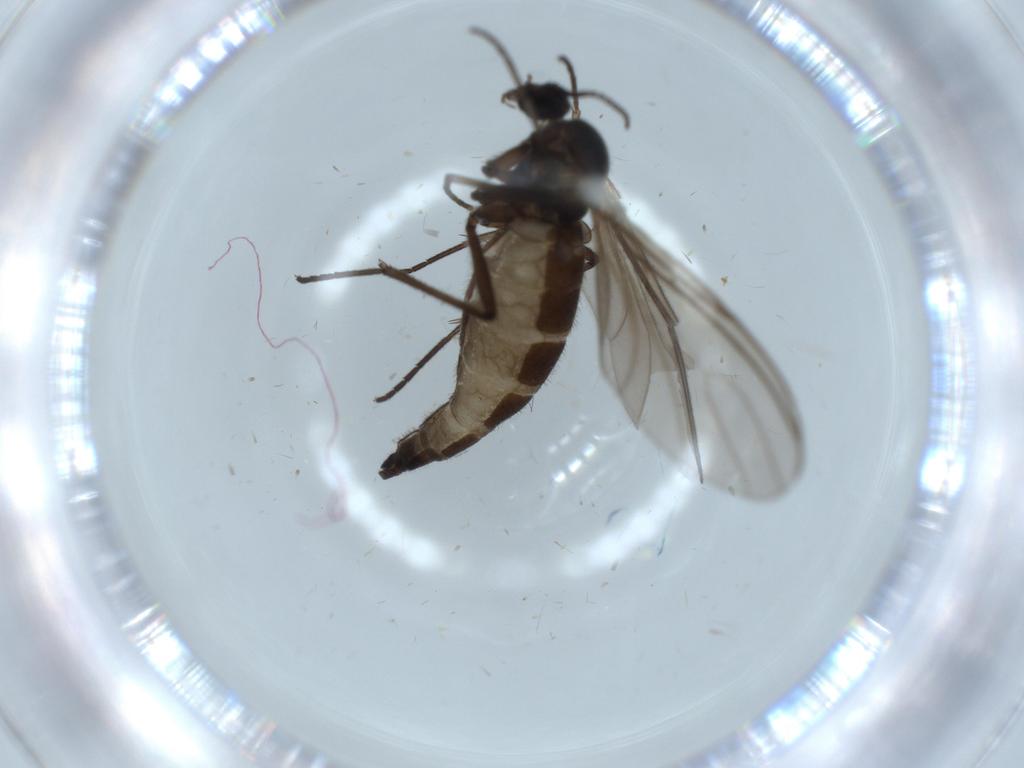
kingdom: Animalia
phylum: Arthropoda
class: Insecta
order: Diptera
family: Sciaridae
